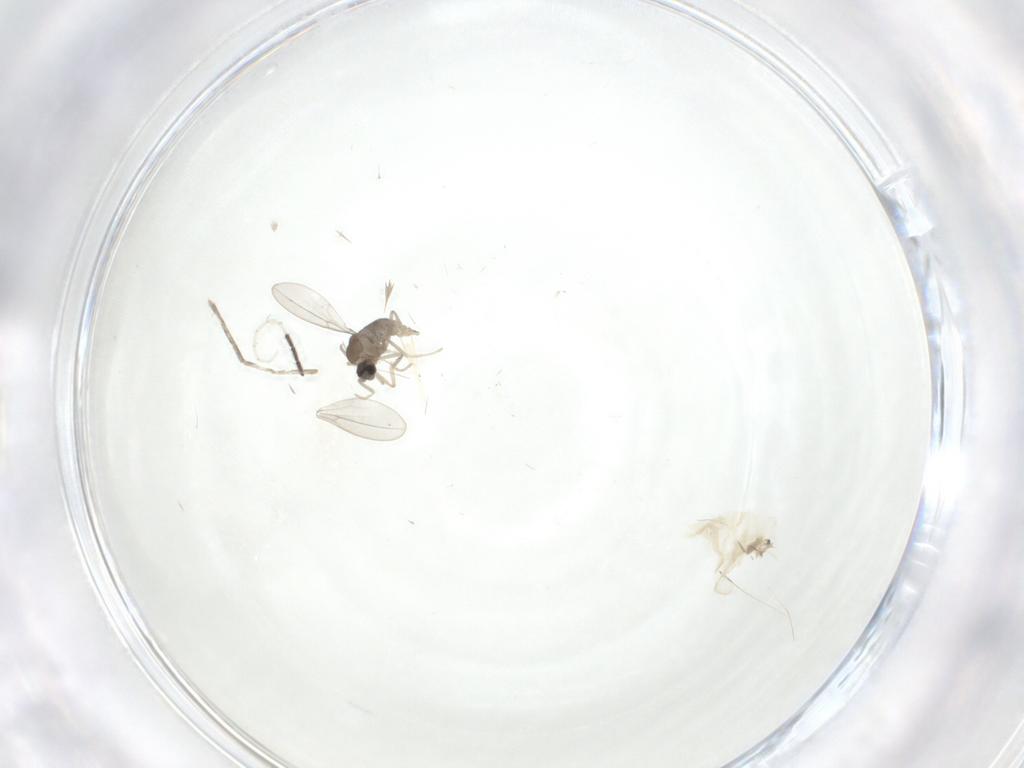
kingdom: Animalia
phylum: Arthropoda
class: Insecta
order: Diptera
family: Cecidomyiidae
